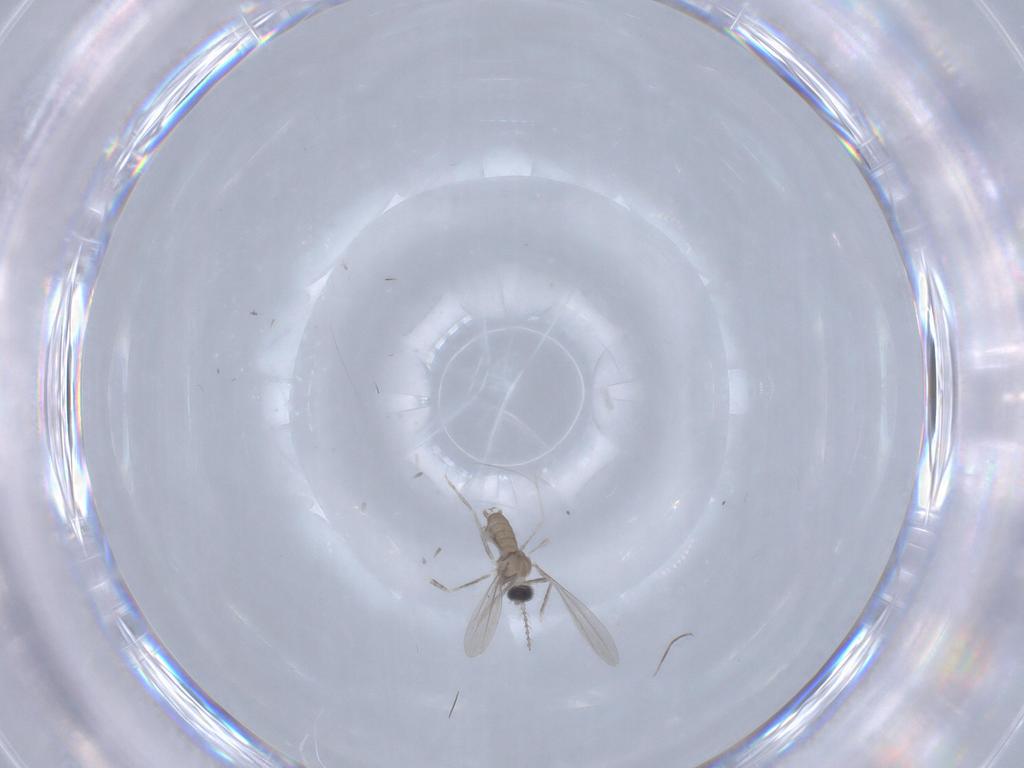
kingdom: Animalia
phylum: Arthropoda
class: Insecta
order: Diptera
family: Cecidomyiidae
